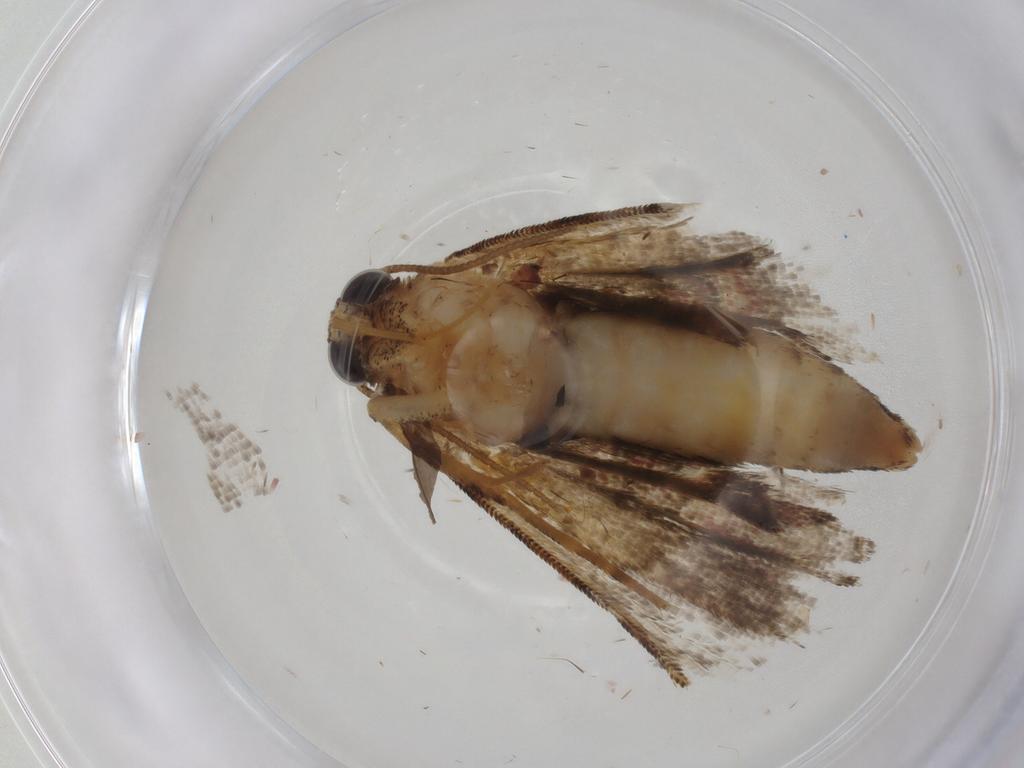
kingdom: Animalia
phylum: Arthropoda
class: Insecta
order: Lepidoptera
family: Erebidae
